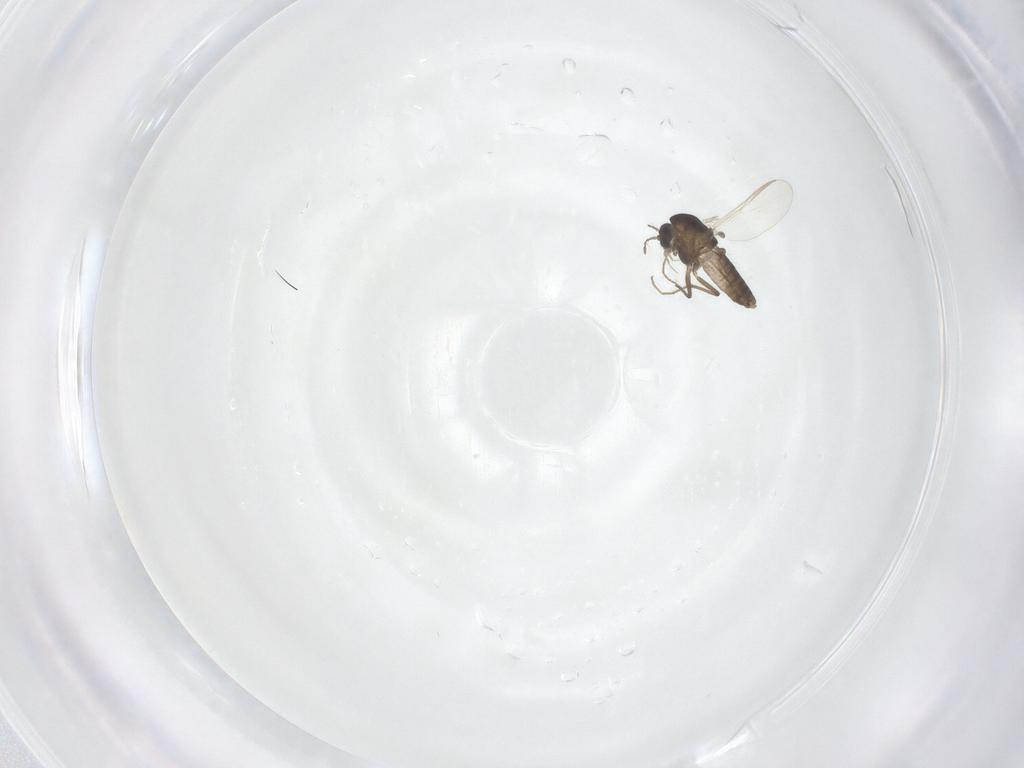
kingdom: Animalia
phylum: Arthropoda
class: Insecta
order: Diptera
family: Chironomidae
